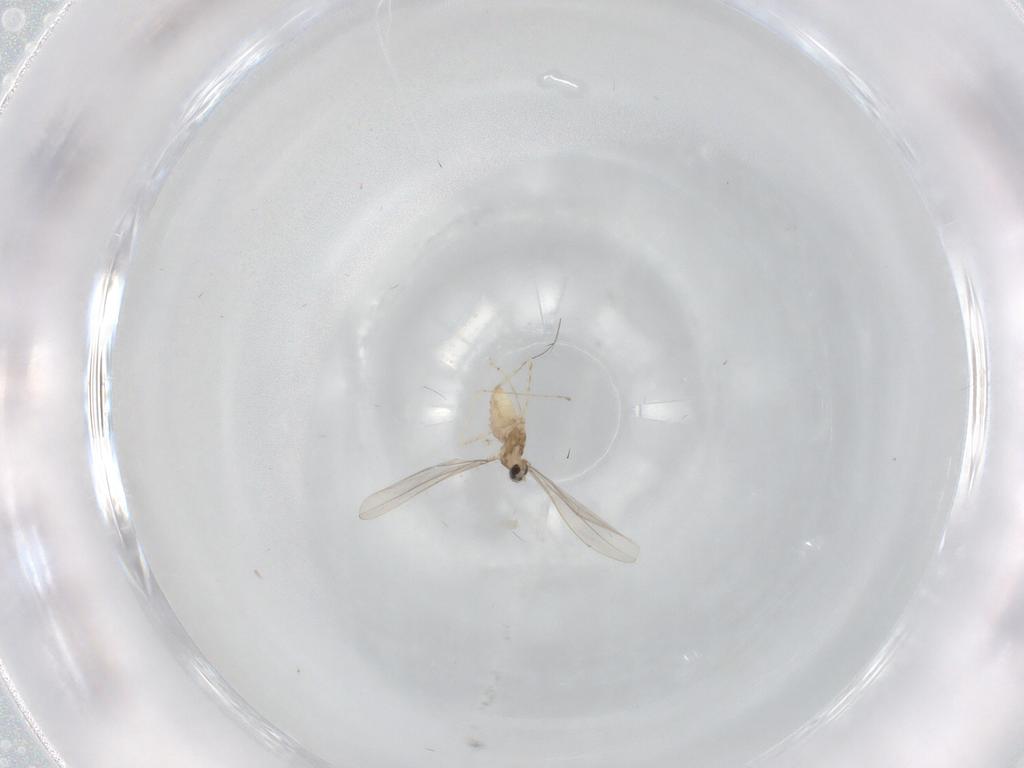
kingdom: Animalia
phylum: Arthropoda
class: Insecta
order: Diptera
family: Cecidomyiidae
